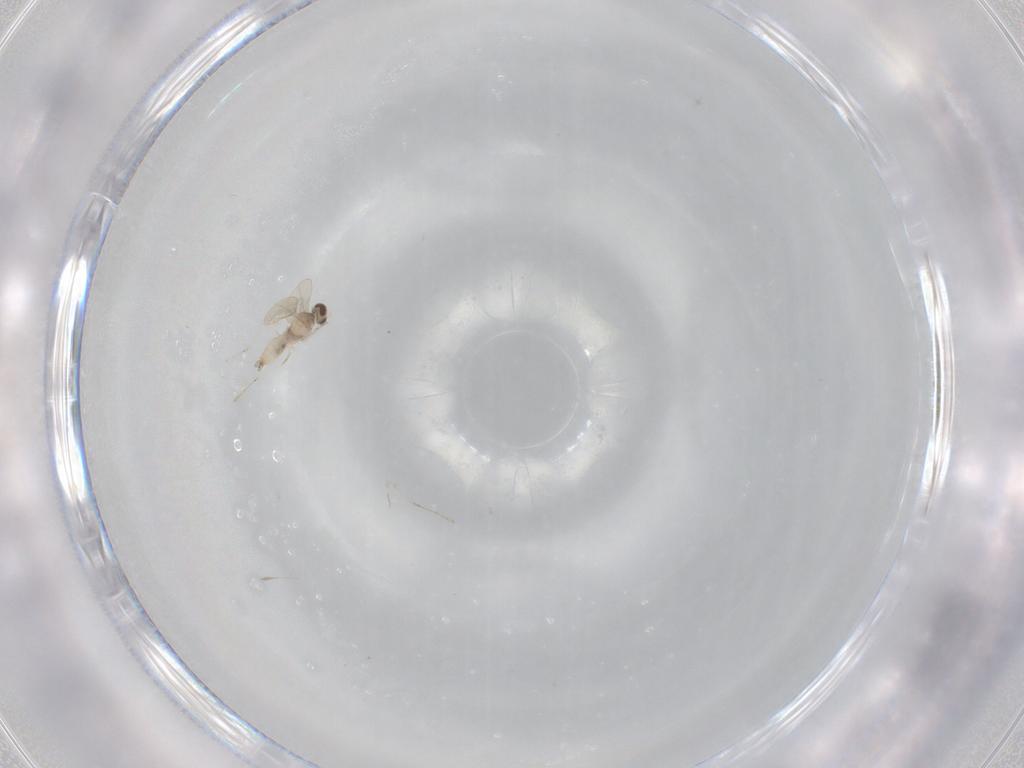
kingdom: Animalia
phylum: Arthropoda
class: Insecta
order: Diptera
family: Cecidomyiidae
